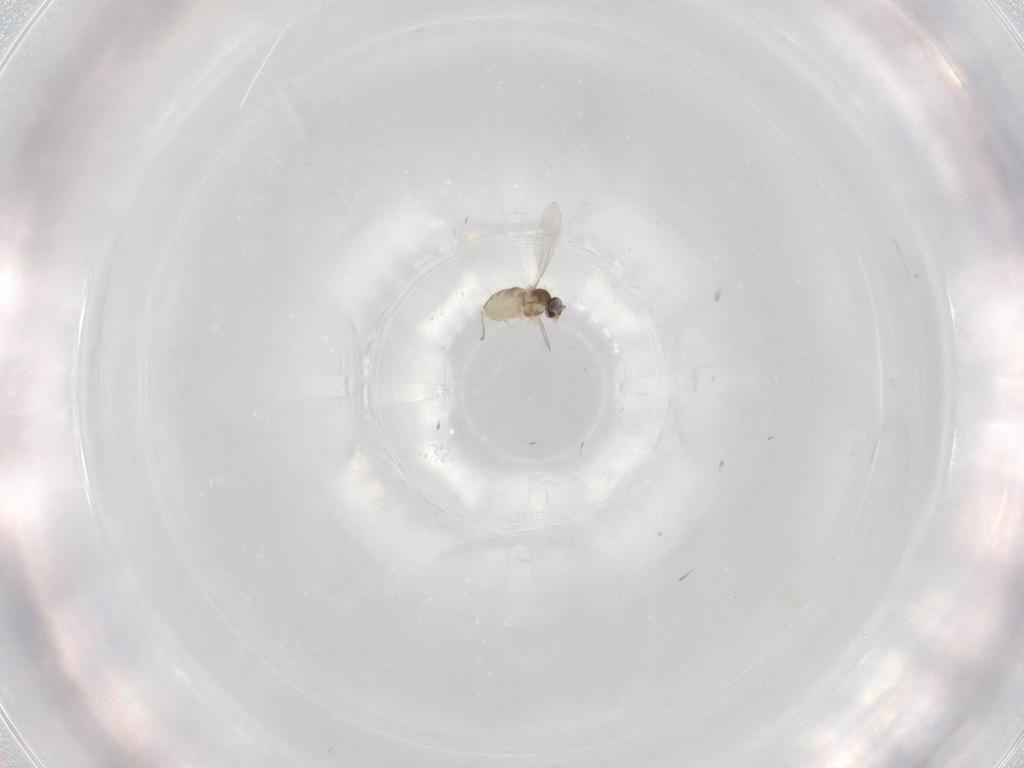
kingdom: Animalia
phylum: Arthropoda
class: Insecta
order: Diptera
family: Cecidomyiidae
